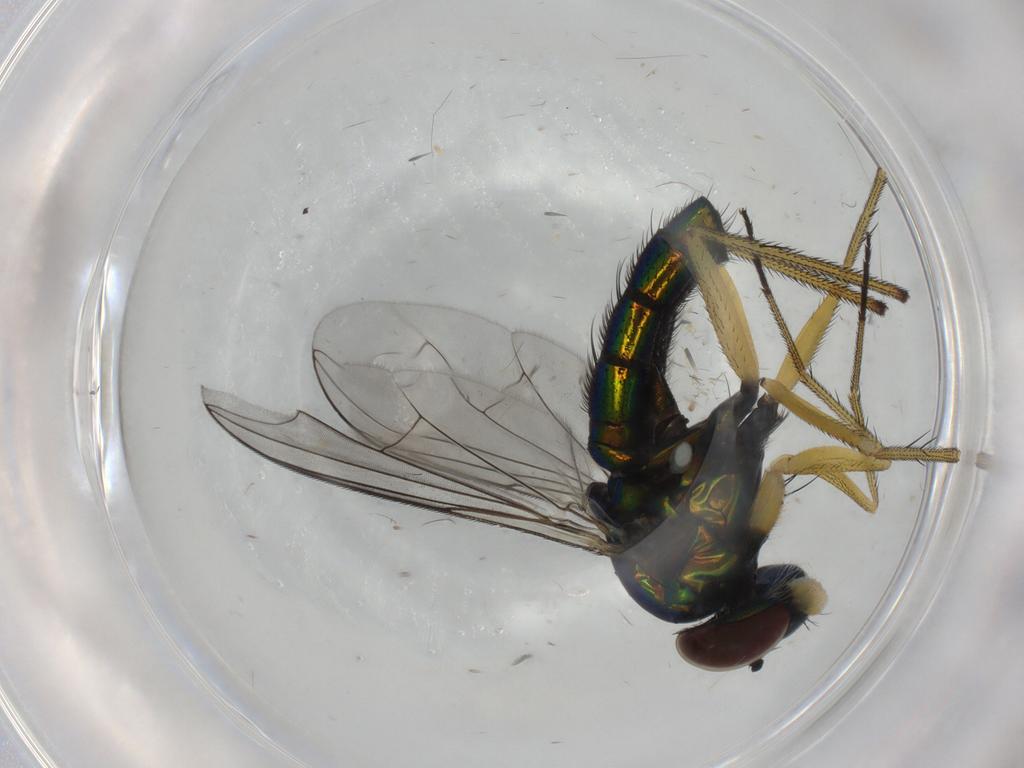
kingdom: Animalia
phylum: Arthropoda
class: Insecta
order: Diptera
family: Dolichopodidae
